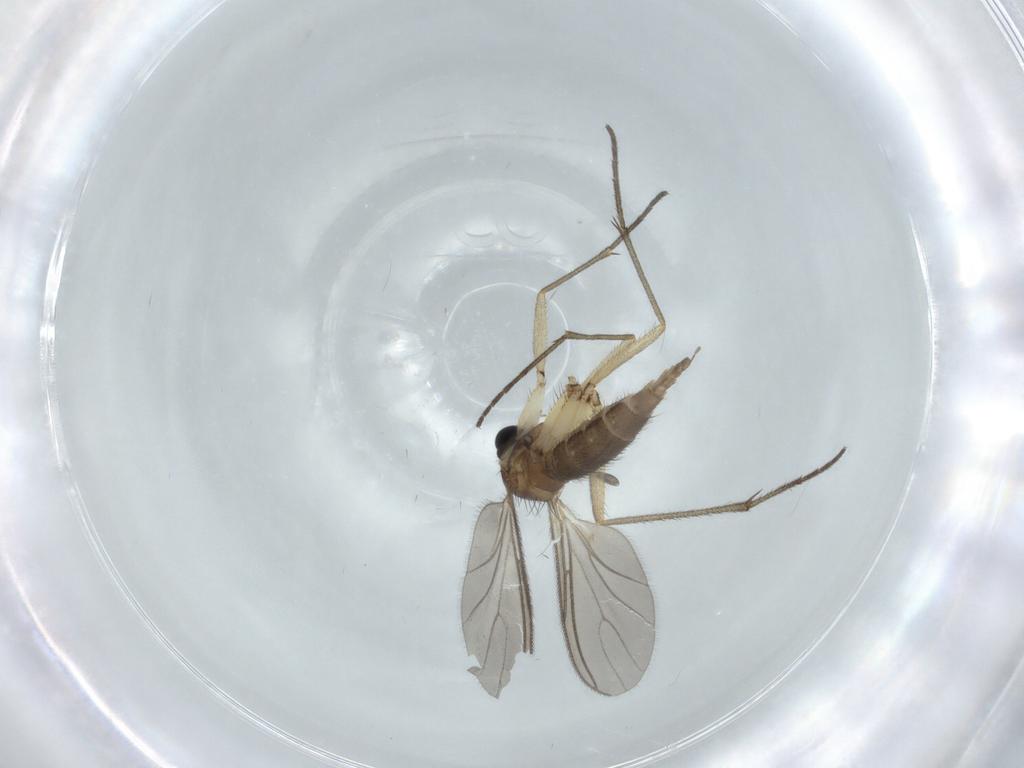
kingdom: Animalia
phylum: Arthropoda
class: Insecta
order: Diptera
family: Sciaridae
